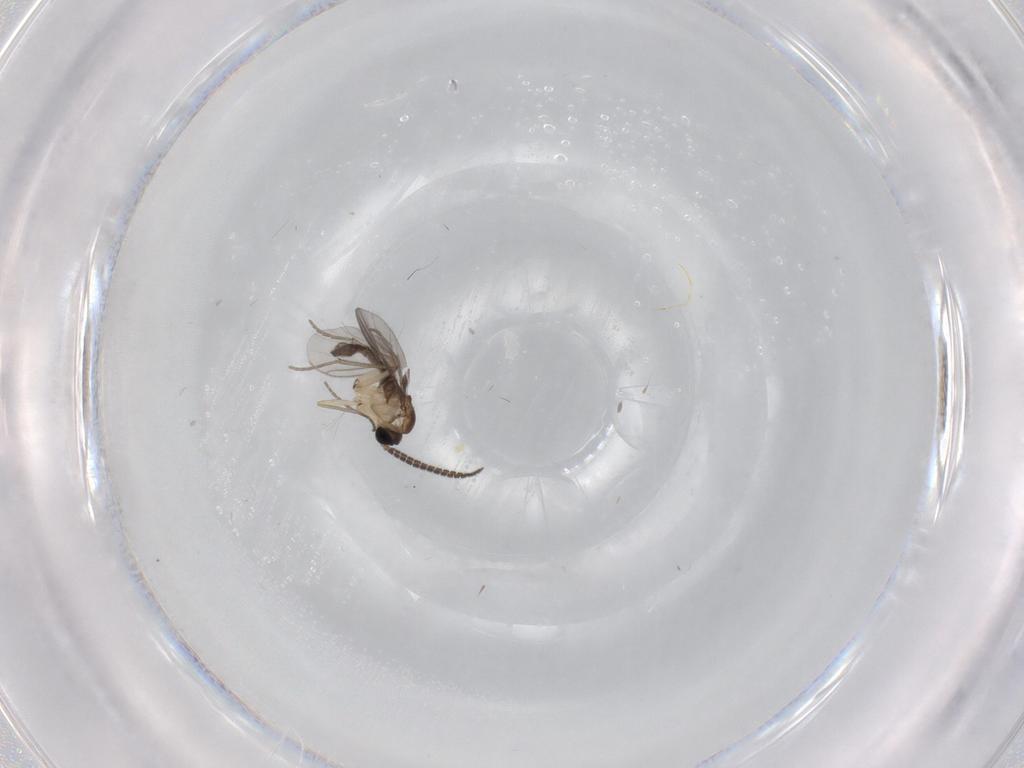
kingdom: Animalia
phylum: Arthropoda
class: Insecta
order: Diptera
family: Sciaridae
